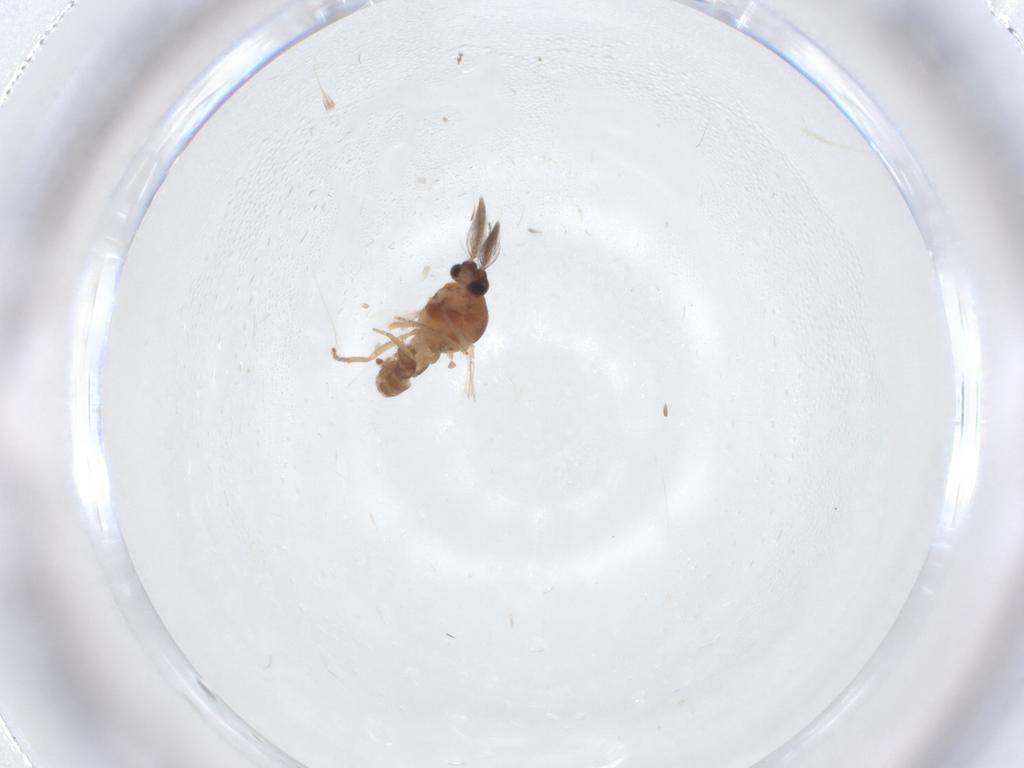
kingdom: Animalia
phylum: Arthropoda
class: Insecta
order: Diptera
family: Ceratopogonidae
